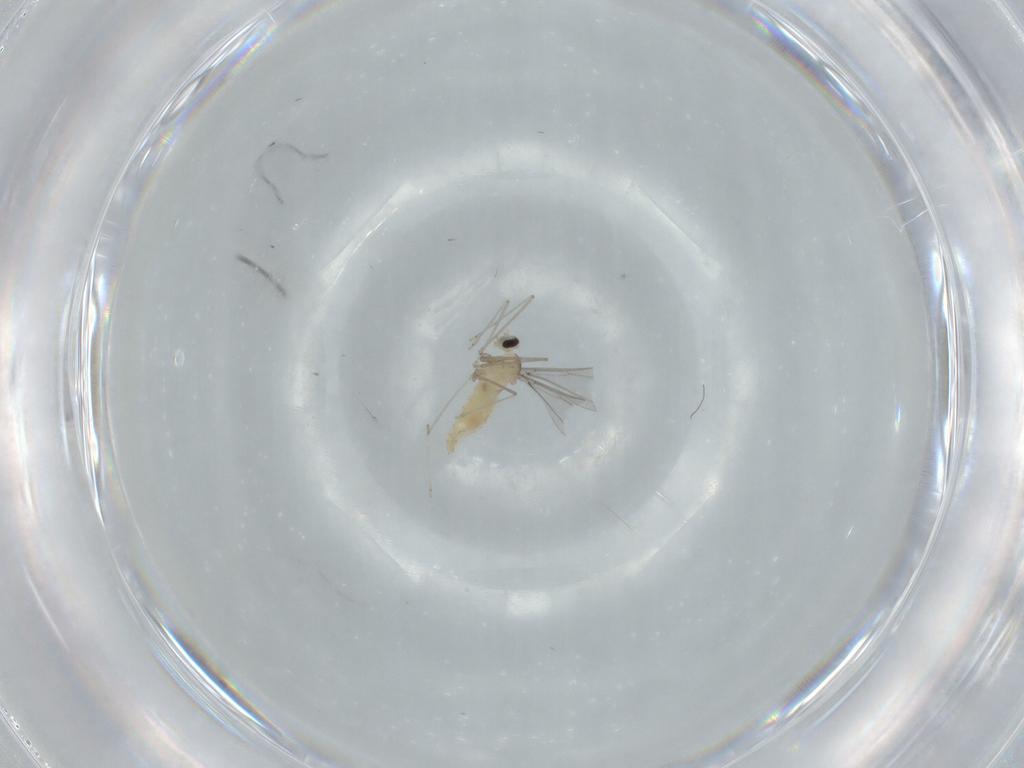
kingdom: Animalia
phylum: Arthropoda
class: Insecta
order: Diptera
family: Cecidomyiidae
